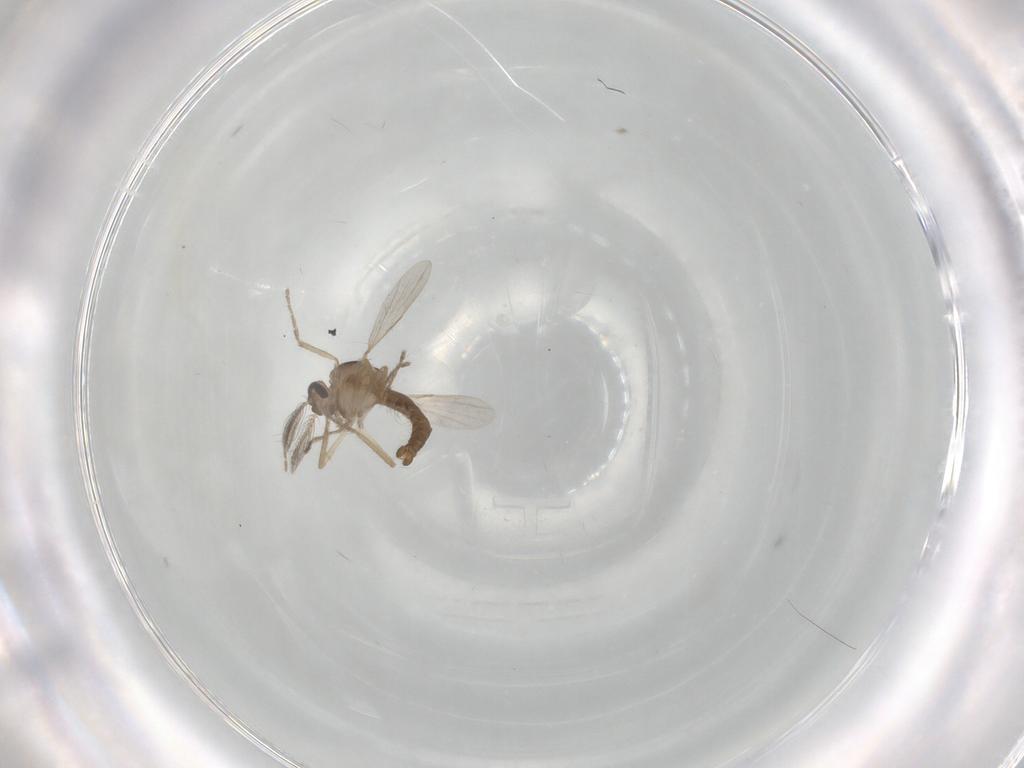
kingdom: Animalia
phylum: Arthropoda
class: Insecta
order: Diptera
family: Ceratopogonidae
